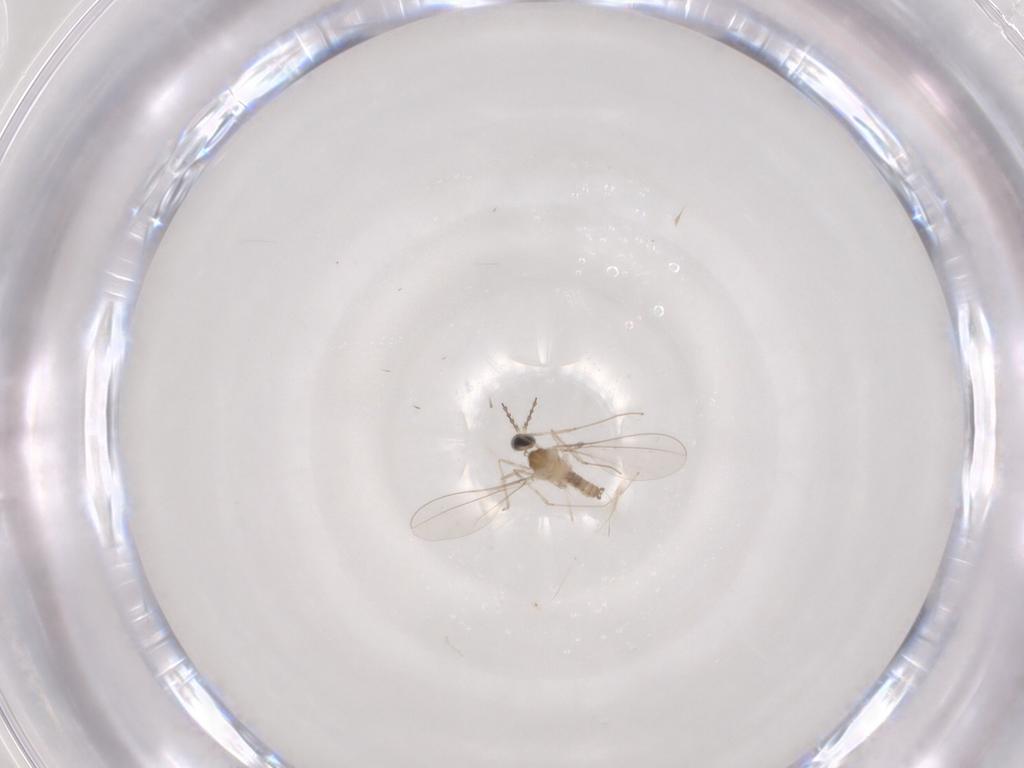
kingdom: Animalia
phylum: Arthropoda
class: Insecta
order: Diptera
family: Cecidomyiidae
